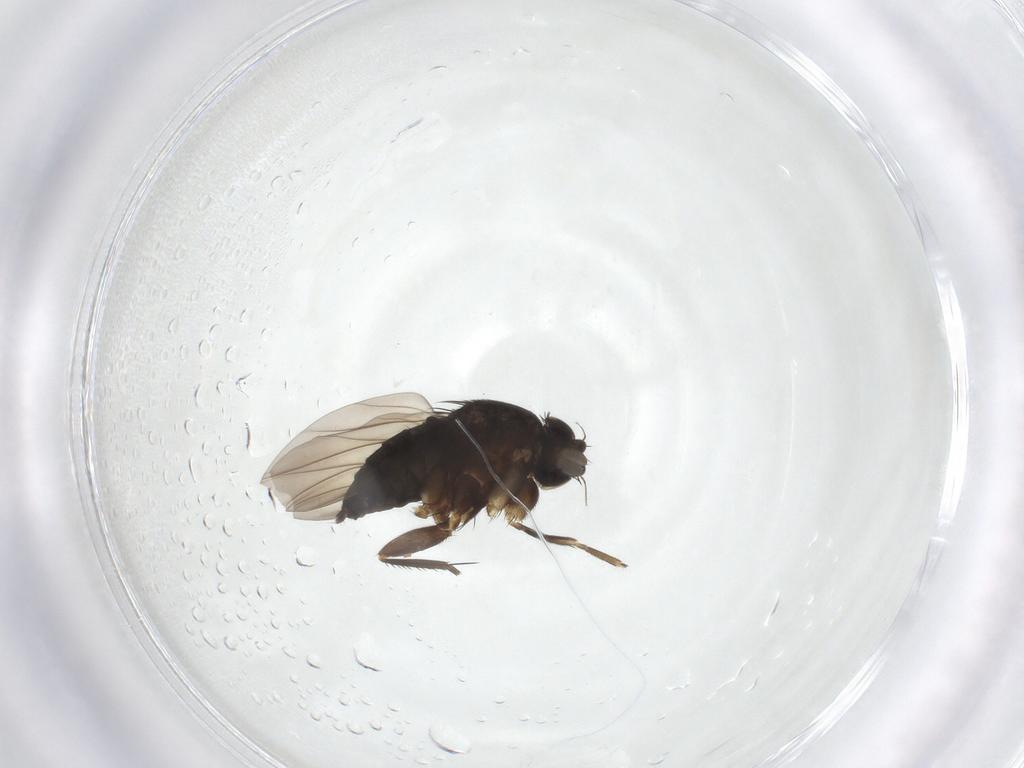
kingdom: Animalia
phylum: Arthropoda
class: Insecta
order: Diptera
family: Phoridae
